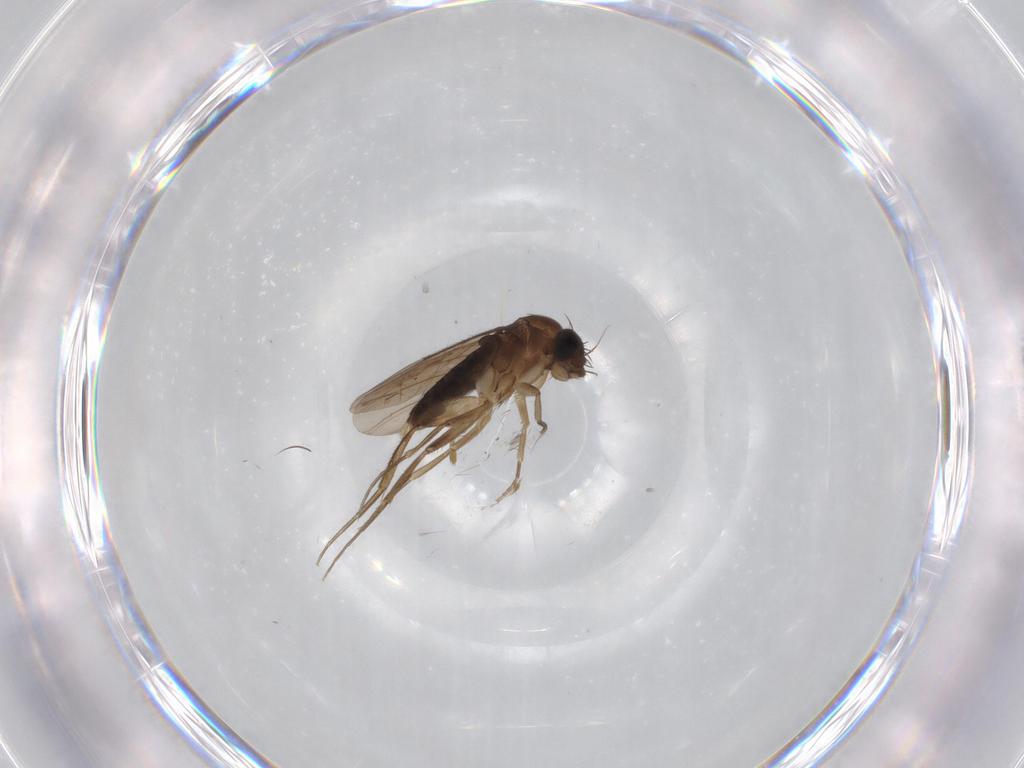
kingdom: Animalia
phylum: Arthropoda
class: Insecta
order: Diptera
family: Phoridae
